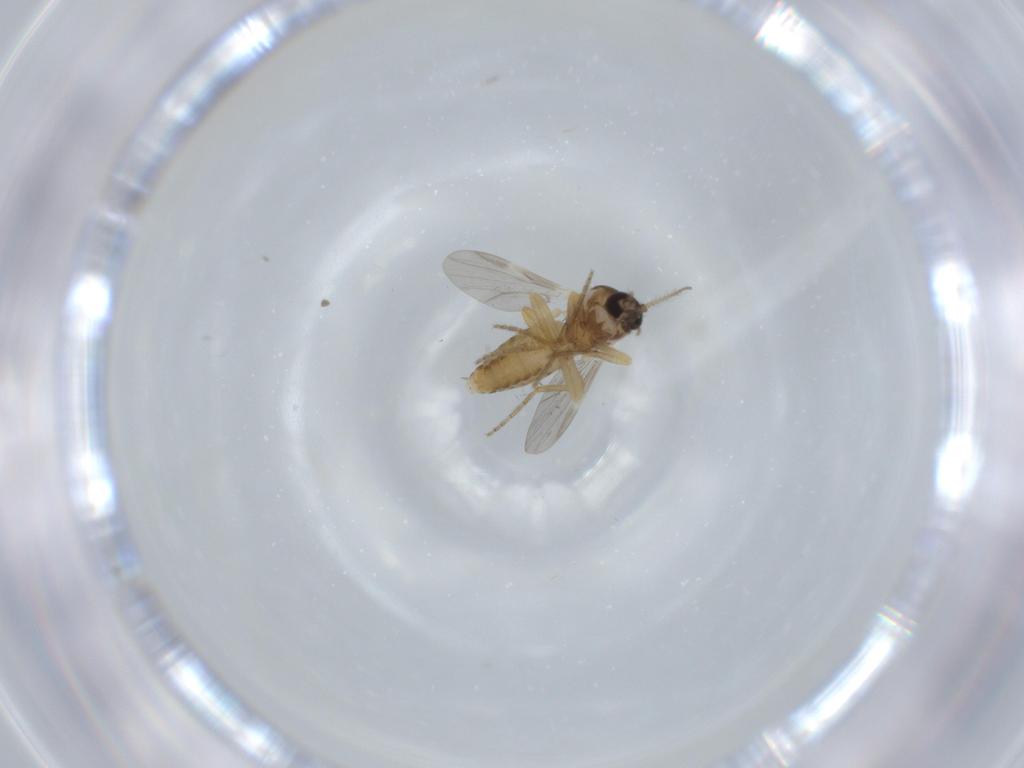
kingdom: Animalia
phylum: Arthropoda
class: Insecta
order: Diptera
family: Ceratopogonidae
